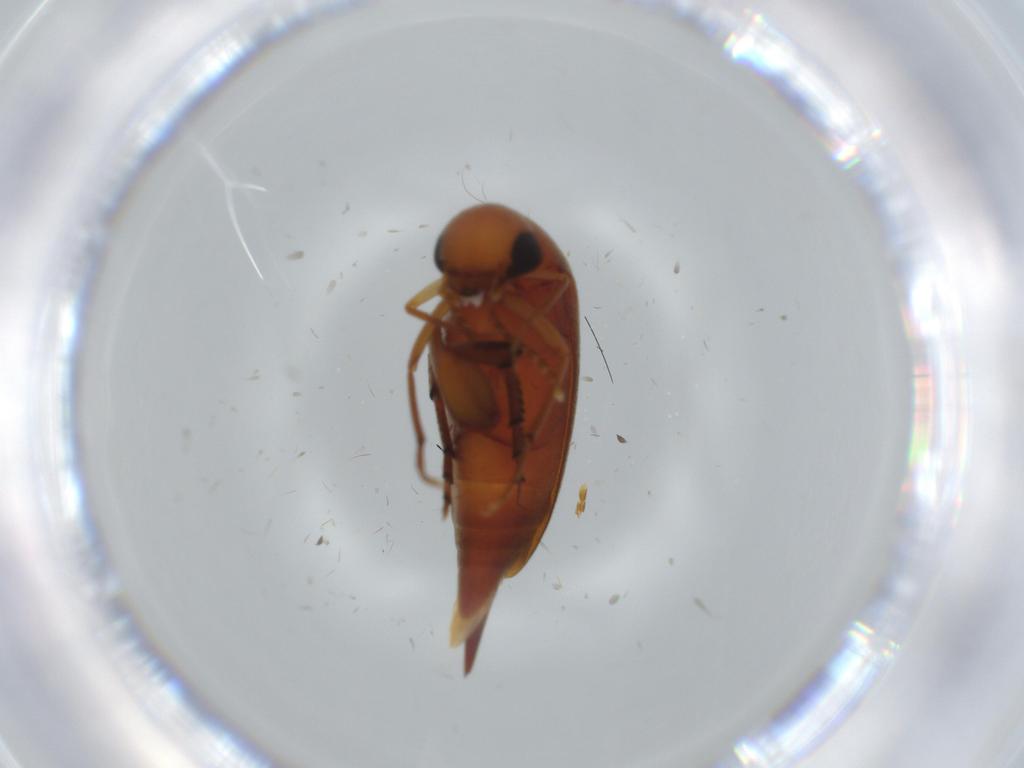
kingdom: Animalia
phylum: Arthropoda
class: Insecta
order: Coleoptera
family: Mordellidae
